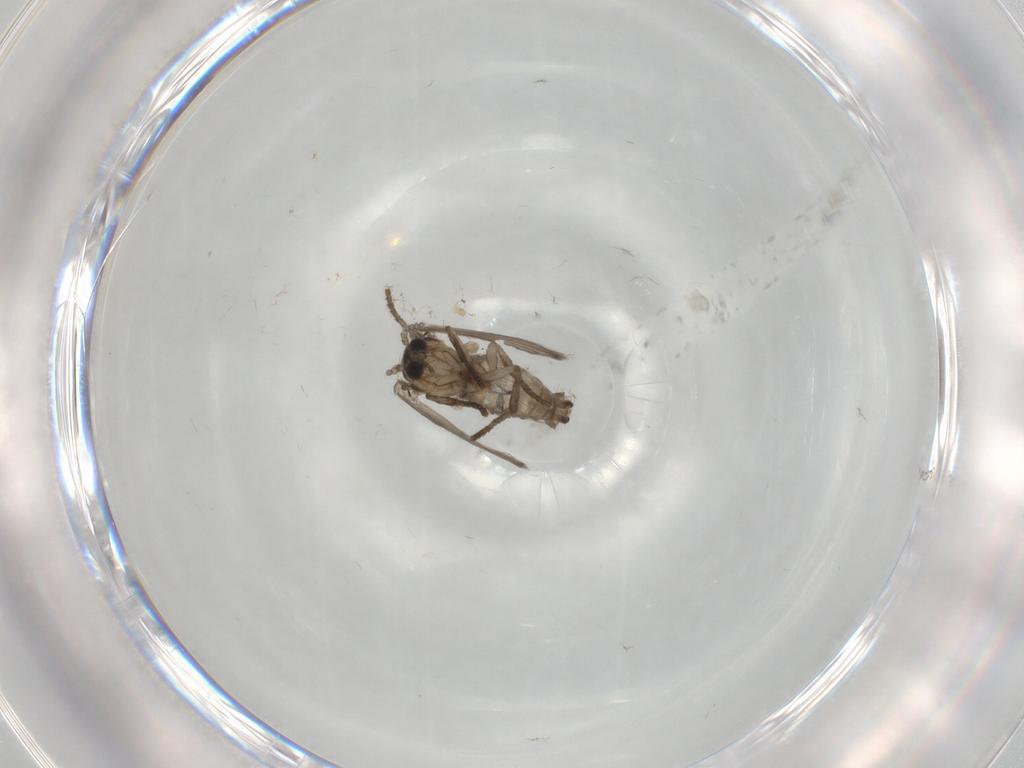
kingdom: Animalia
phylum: Arthropoda
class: Insecta
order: Diptera
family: Psychodidae
